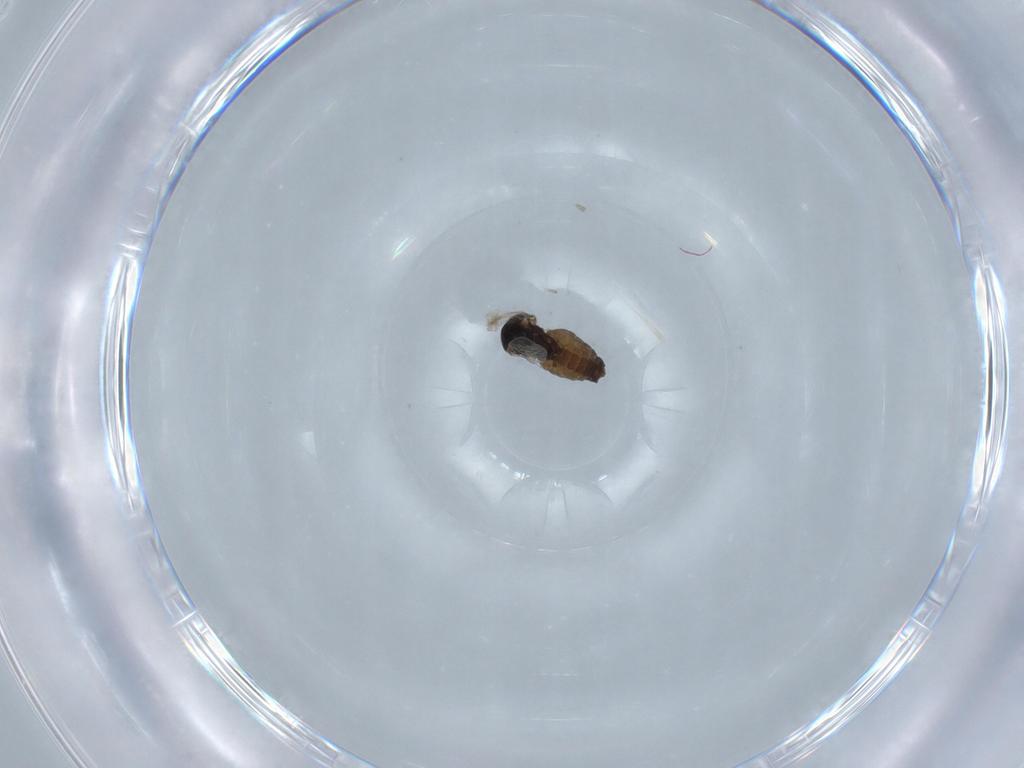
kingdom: Animalia
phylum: Arthropoda
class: Insecta
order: Diptera
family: Ceratopogonidae
